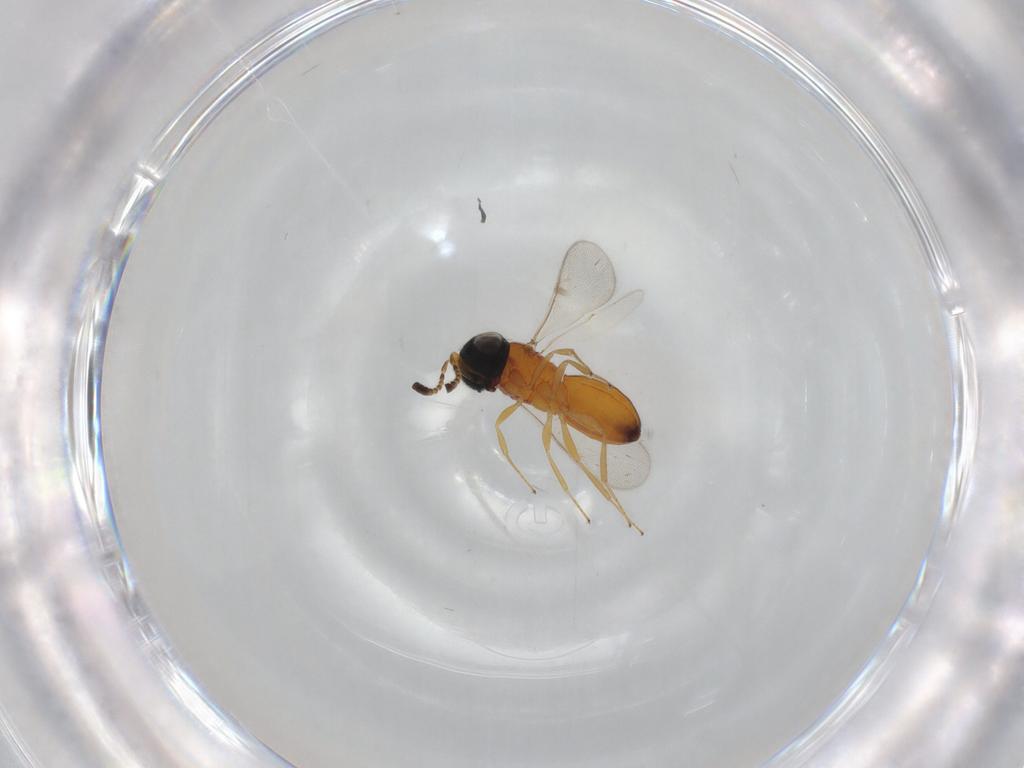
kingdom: Animalia
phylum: Arthropoda
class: Insecta
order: Hymenoptera
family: Scelionidae
